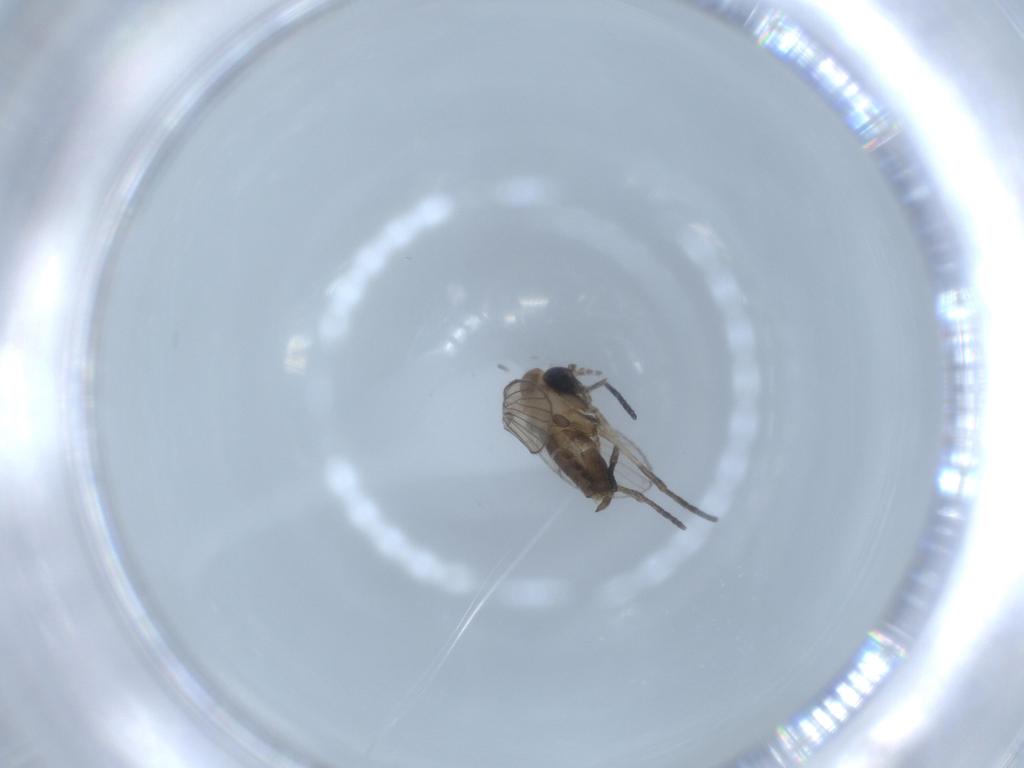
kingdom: Animalia
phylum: Arthropoda
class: Insecta
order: Diptera
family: Psychodidae
